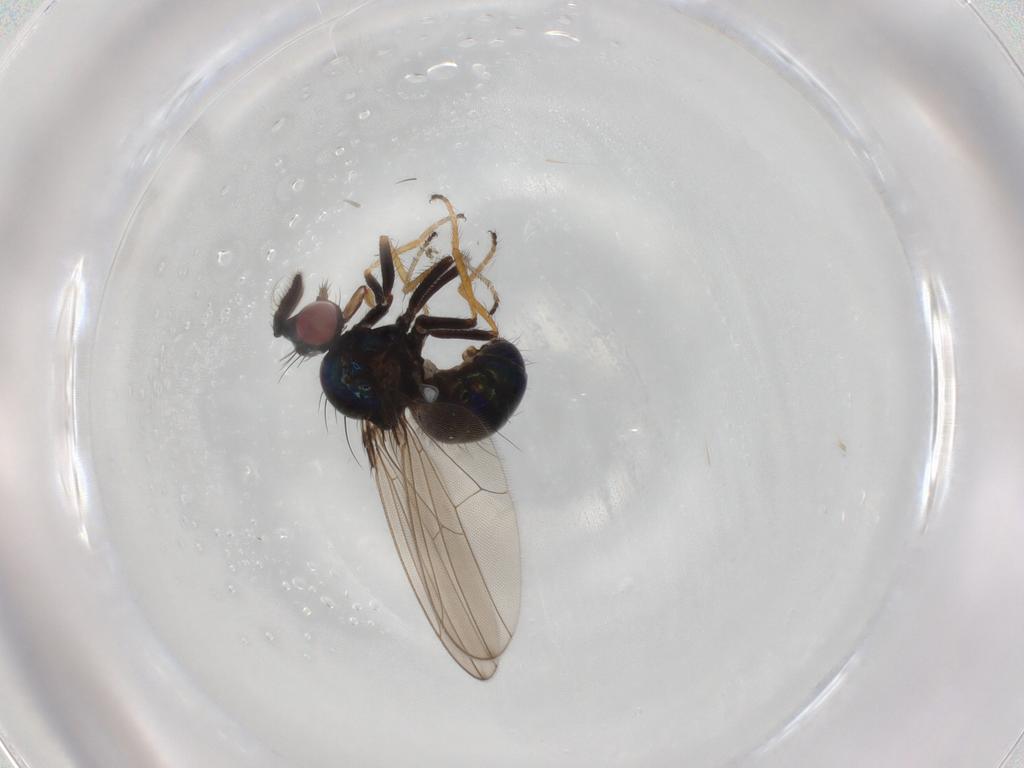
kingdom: Animalia
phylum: Arthropoda
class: Insecta
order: Diptera
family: Ephydridae
